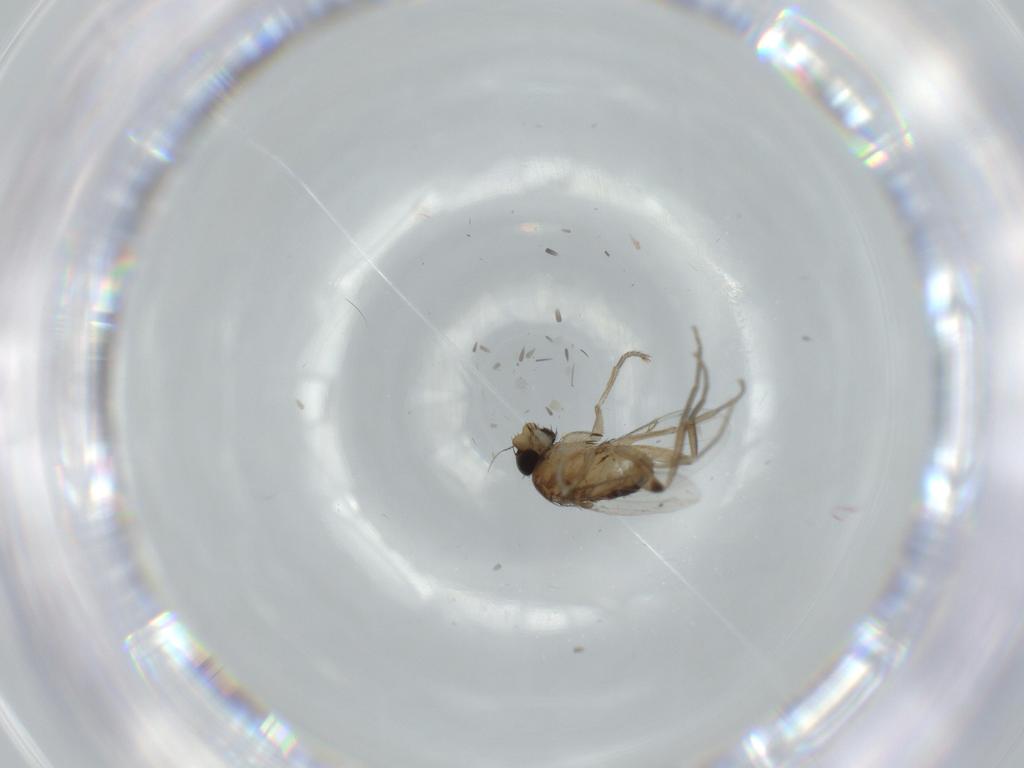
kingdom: Animalia
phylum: Arthropoda
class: Insecta
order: Diptera
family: Phoridae
